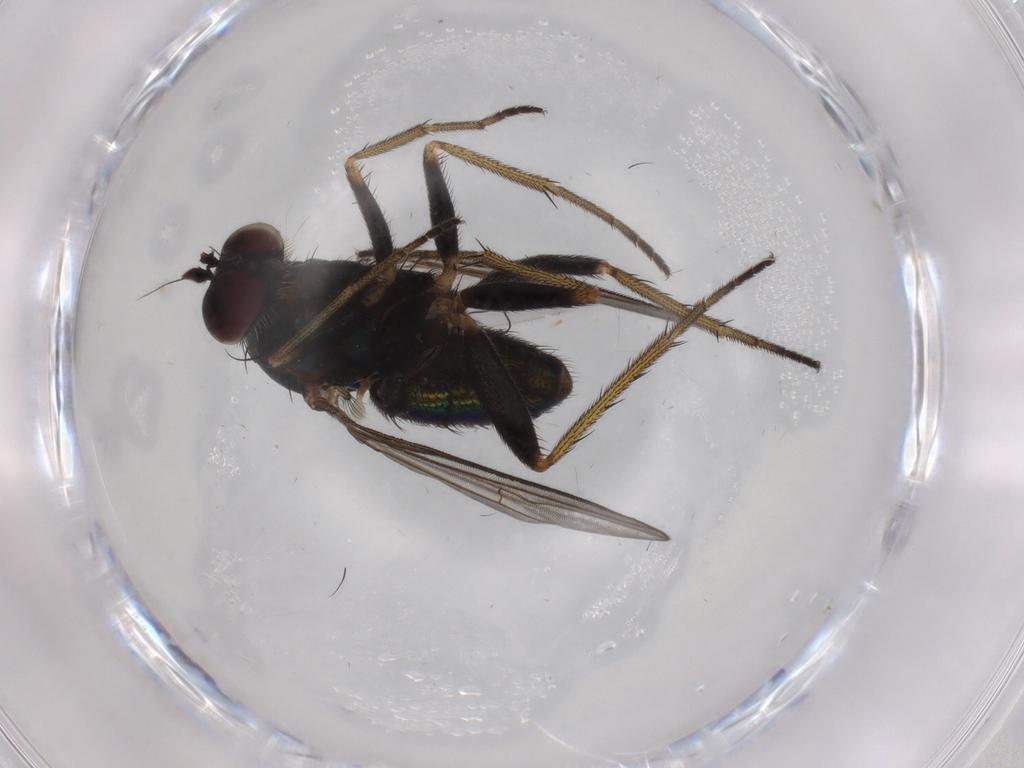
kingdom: Animalia
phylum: Arthropoda
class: Insecta
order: Diptera
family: Dolichopodidae
